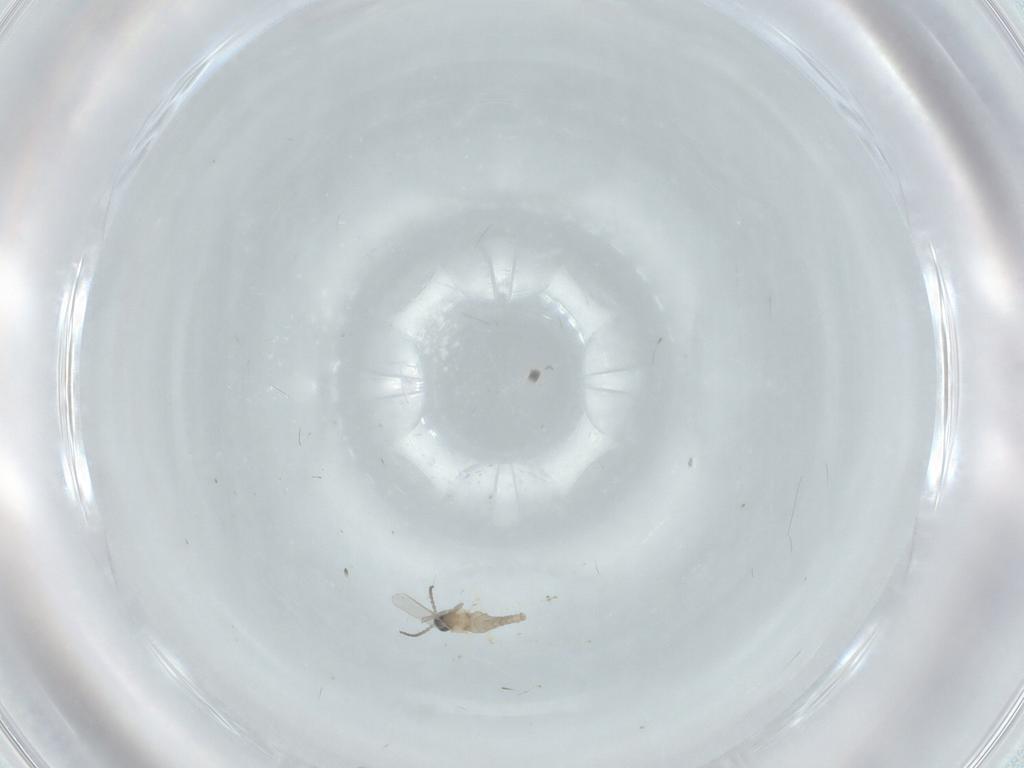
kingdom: Animalia
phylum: Arthropoda
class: Insecta
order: Diptera
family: Cecidomyiidae
